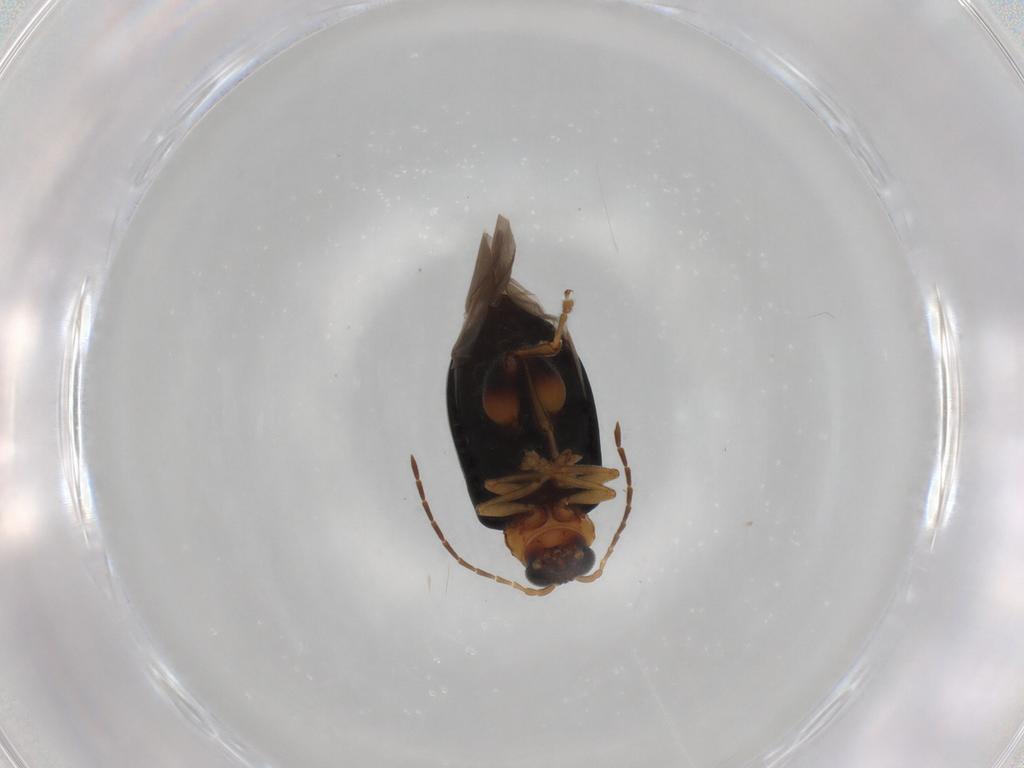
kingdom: Animalia
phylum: Arthropoda
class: Insecta
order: Coleoptera
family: Chrysomelidae
